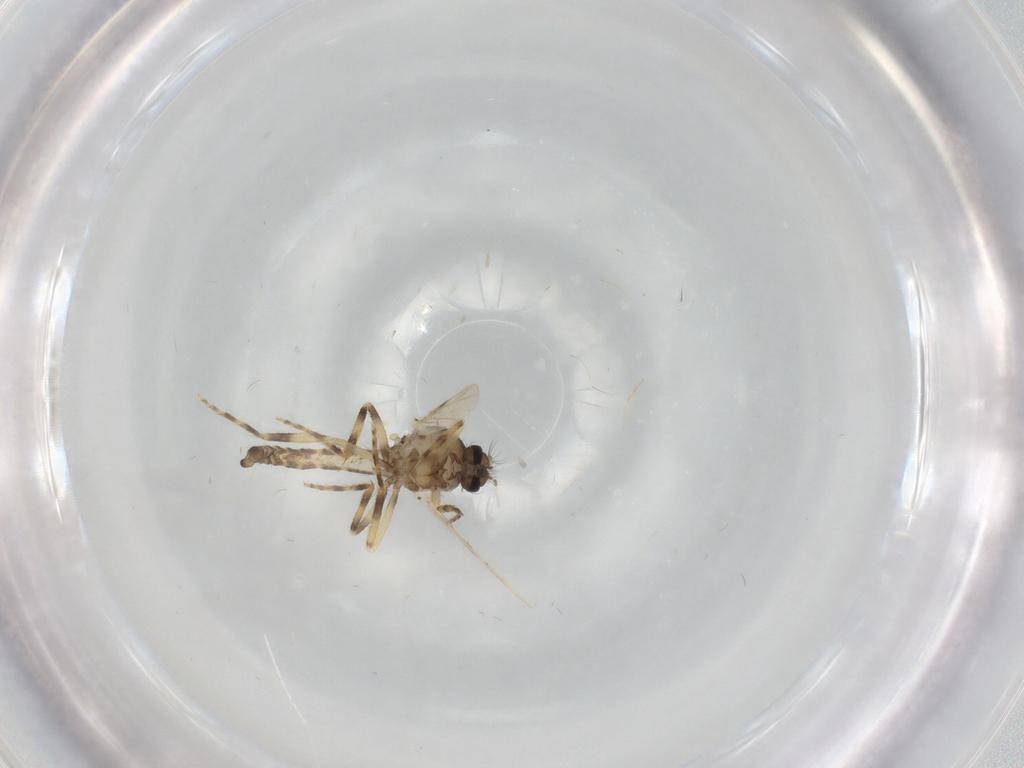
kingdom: Animalia
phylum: Arthropoda
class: Insecta
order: Diptera
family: Ceratopogonidae
